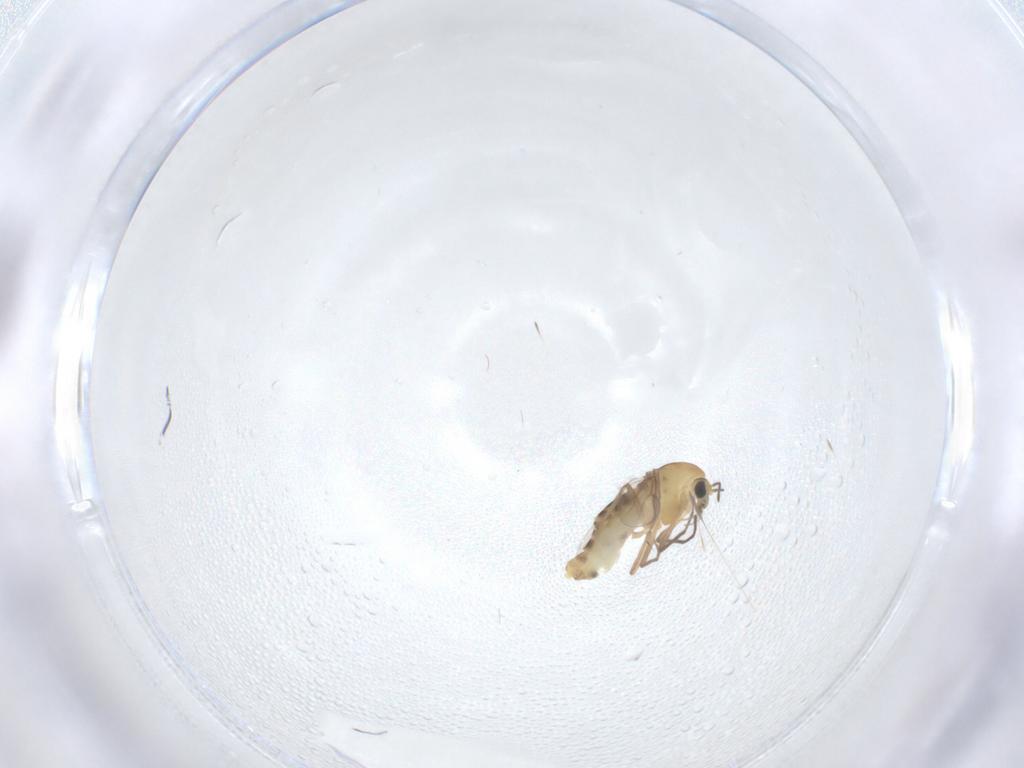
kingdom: Animalia
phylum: Arthropoda
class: Insecta
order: Diptera
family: Chironomidae
